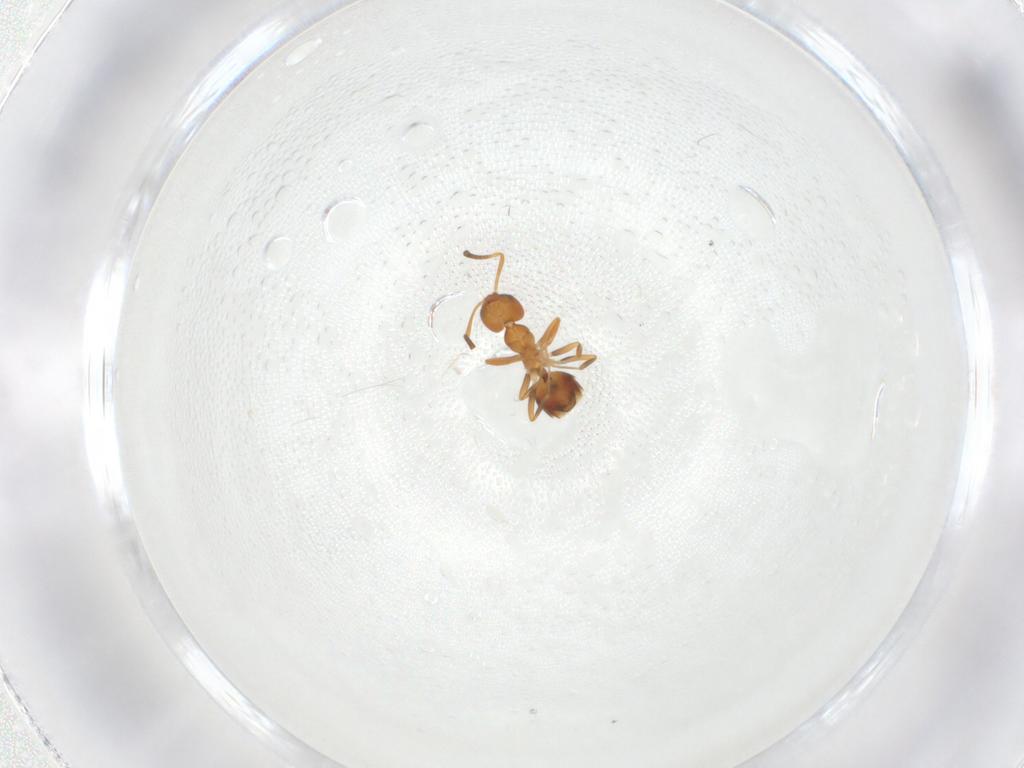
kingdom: Animalia
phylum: Arthropoda
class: Insecta
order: Hymenoptera
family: Formicidae
